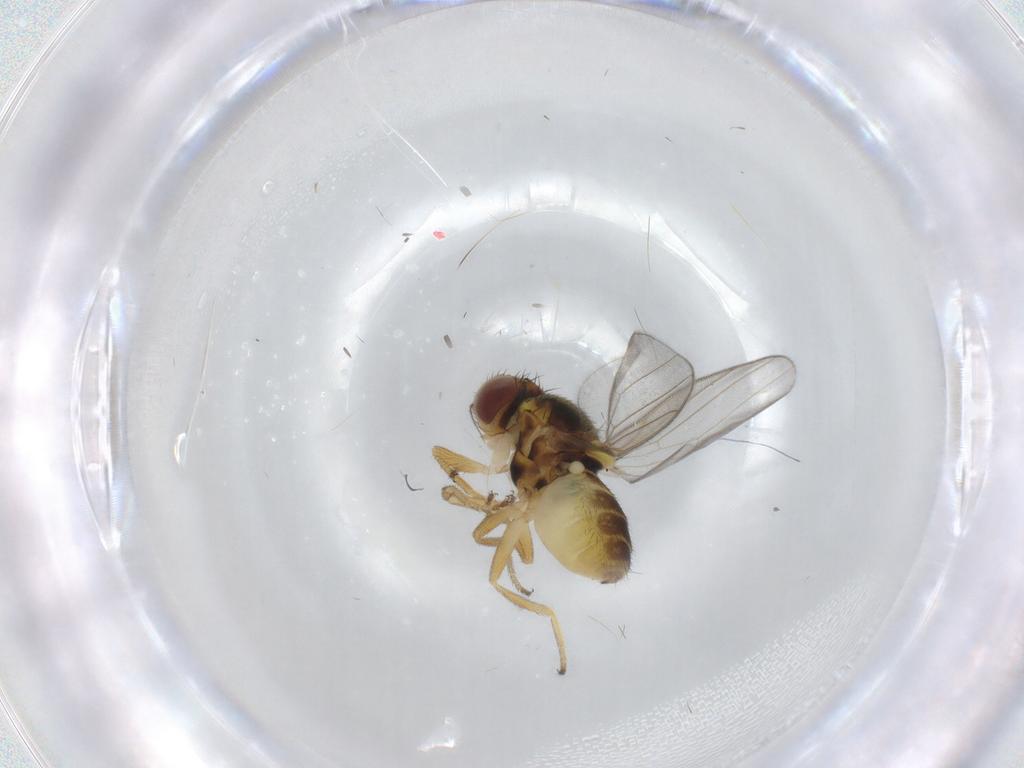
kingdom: Animalia
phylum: Arthropoda
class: Insecta
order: Diptera
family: Chloropidae
